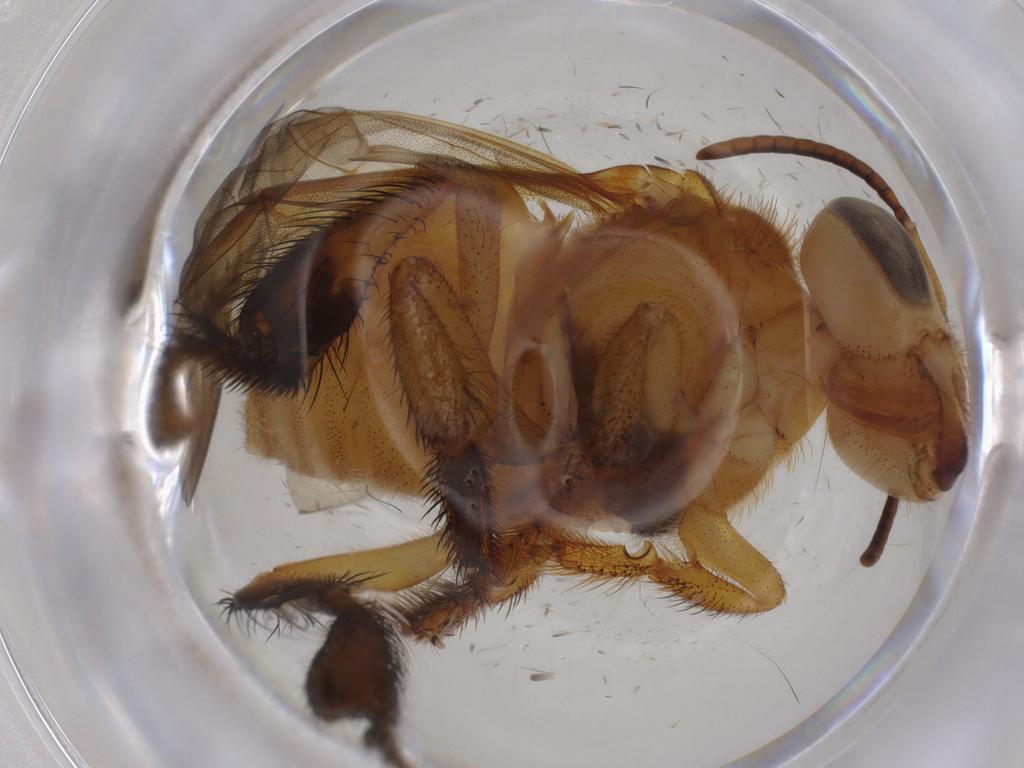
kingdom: Animalia
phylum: Arthropoda
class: Insecta
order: Hymenoptera
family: Apidae
